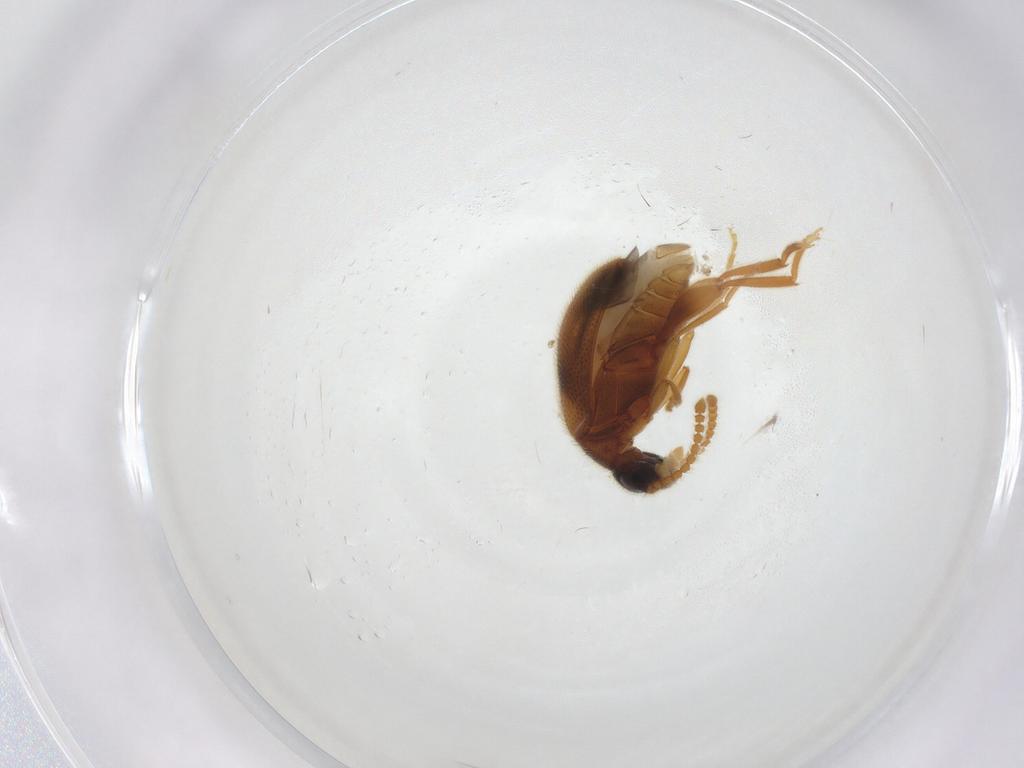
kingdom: Animalia
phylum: Arthropoda
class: Insecta
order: Coleoptera
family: Aderidae
